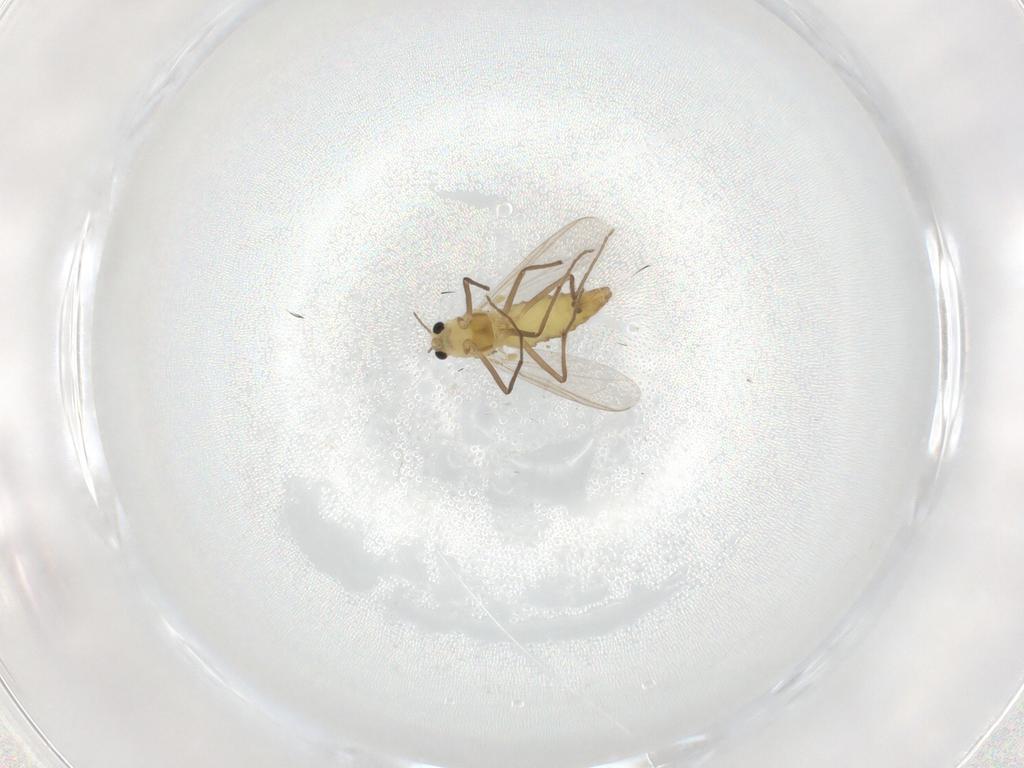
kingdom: Animalia
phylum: Arthropoda
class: Insecta
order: Diptera
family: Chironomidae
